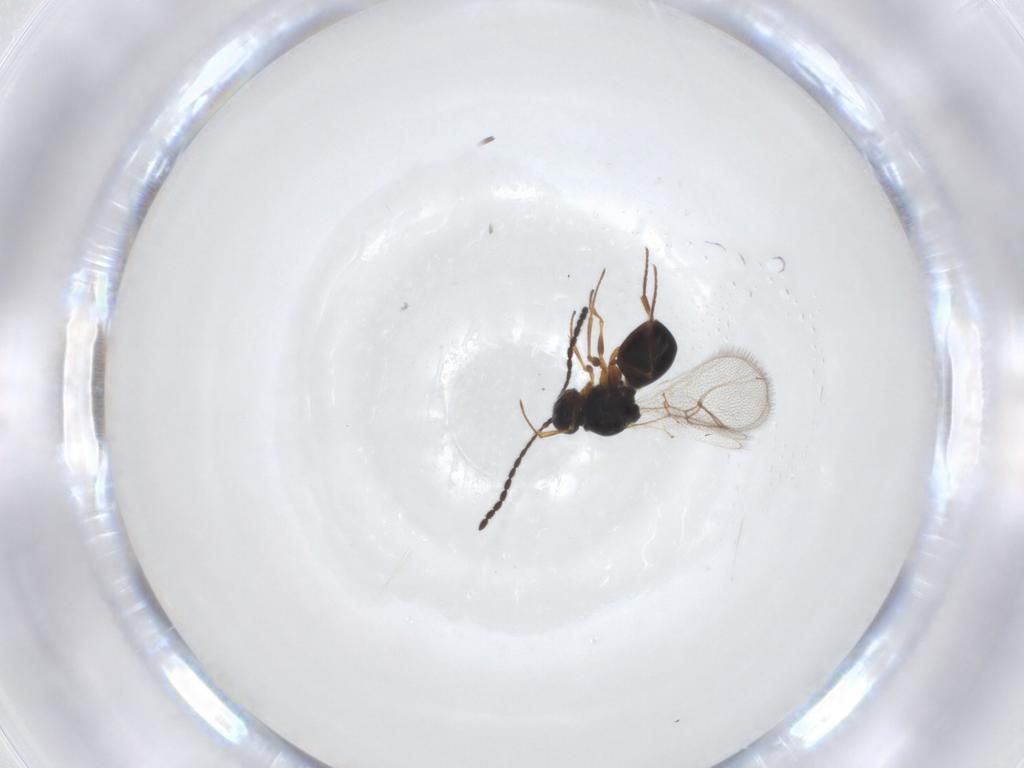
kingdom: Animalia
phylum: Arthropoda
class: Insecta
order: Hymenoptera
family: Figitidae
